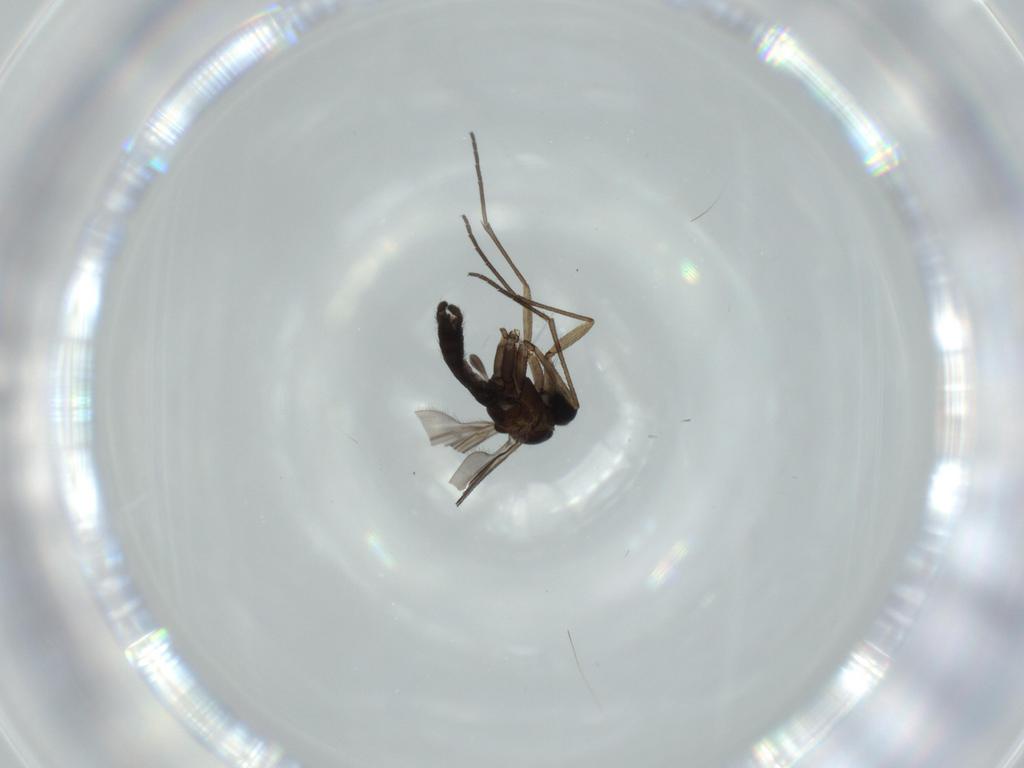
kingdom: Animalia
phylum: Arthropoda
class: Insecta
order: Diptera
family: Sciaridae
